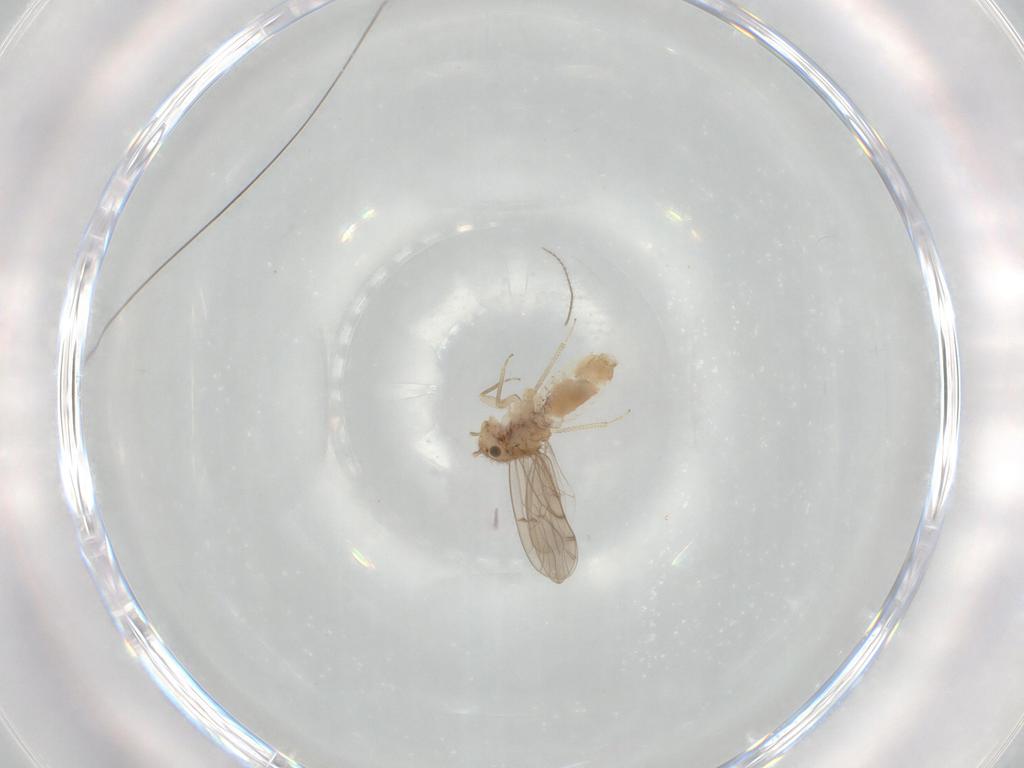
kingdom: Animalia
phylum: Arthropoda
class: Insecta
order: Psocodea
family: Ectopsocidae
